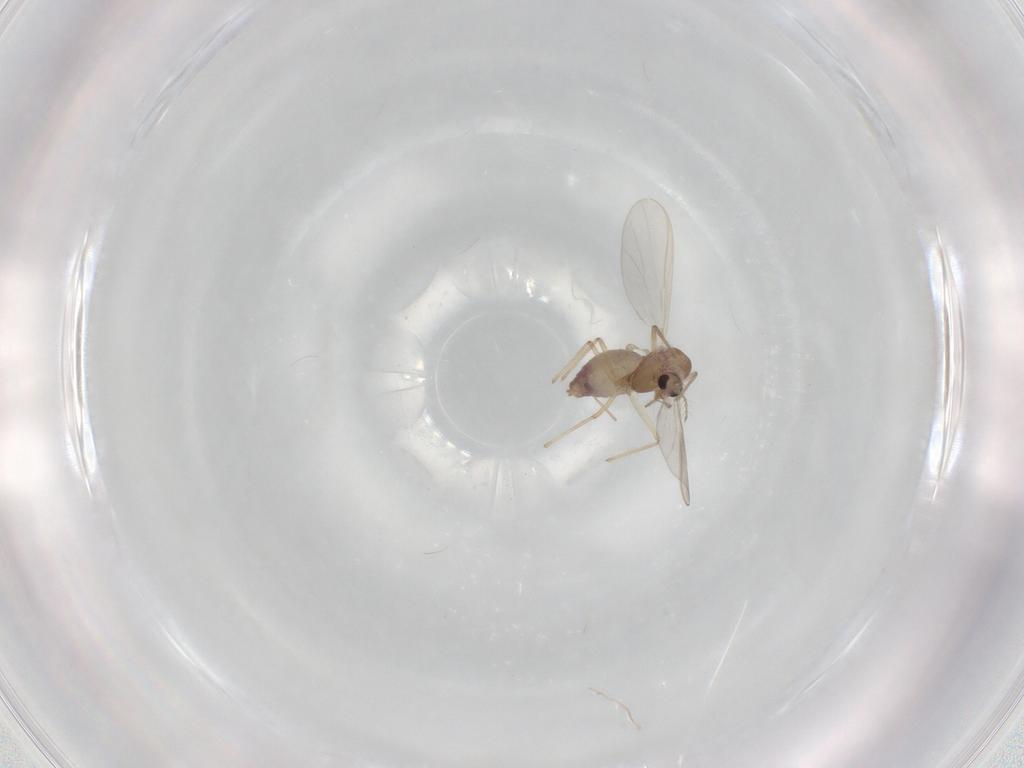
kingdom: Animalia
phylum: Arthropoda
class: Insecta
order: Diptera
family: Chironomidae
